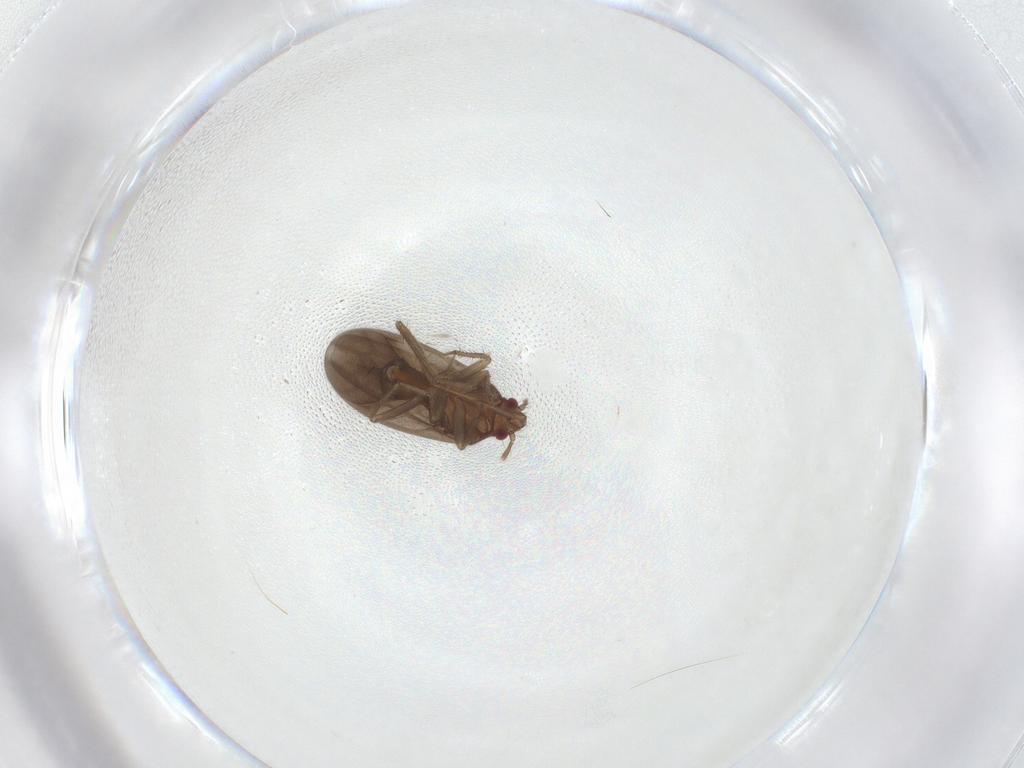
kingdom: Animalia
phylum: Arthropoda
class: Insecta
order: Hemiptera
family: Ceratocombidae
